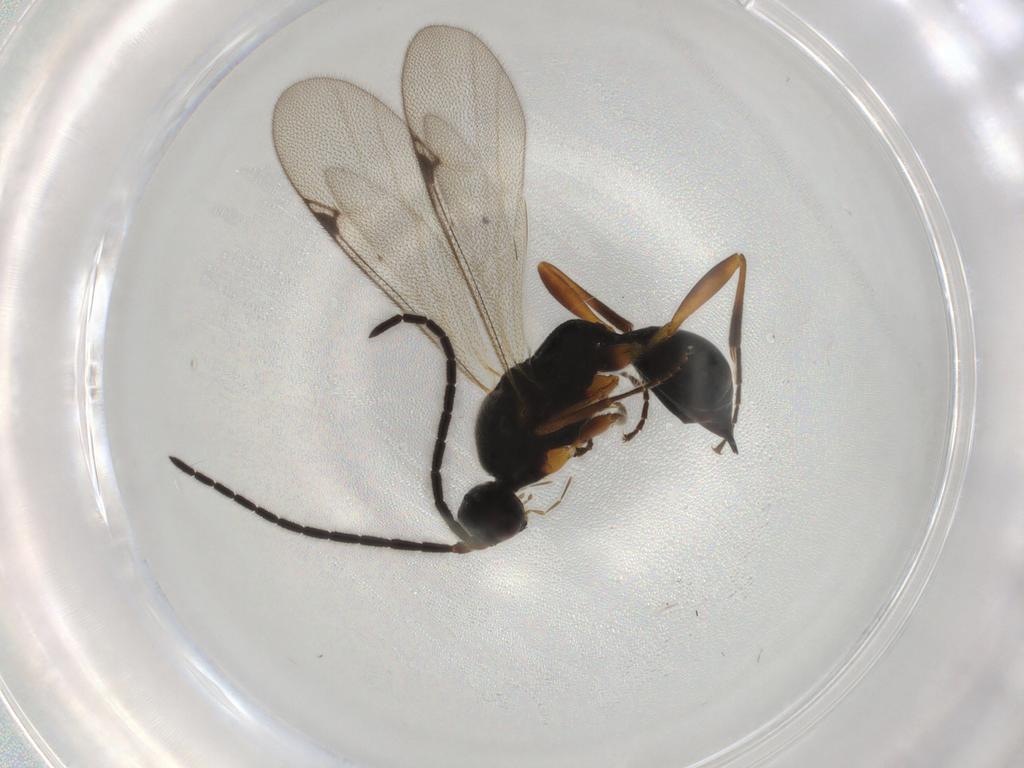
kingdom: Animalia
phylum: Arthropoda
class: Insecta
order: Hymenoptera
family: Proctotrupidae
